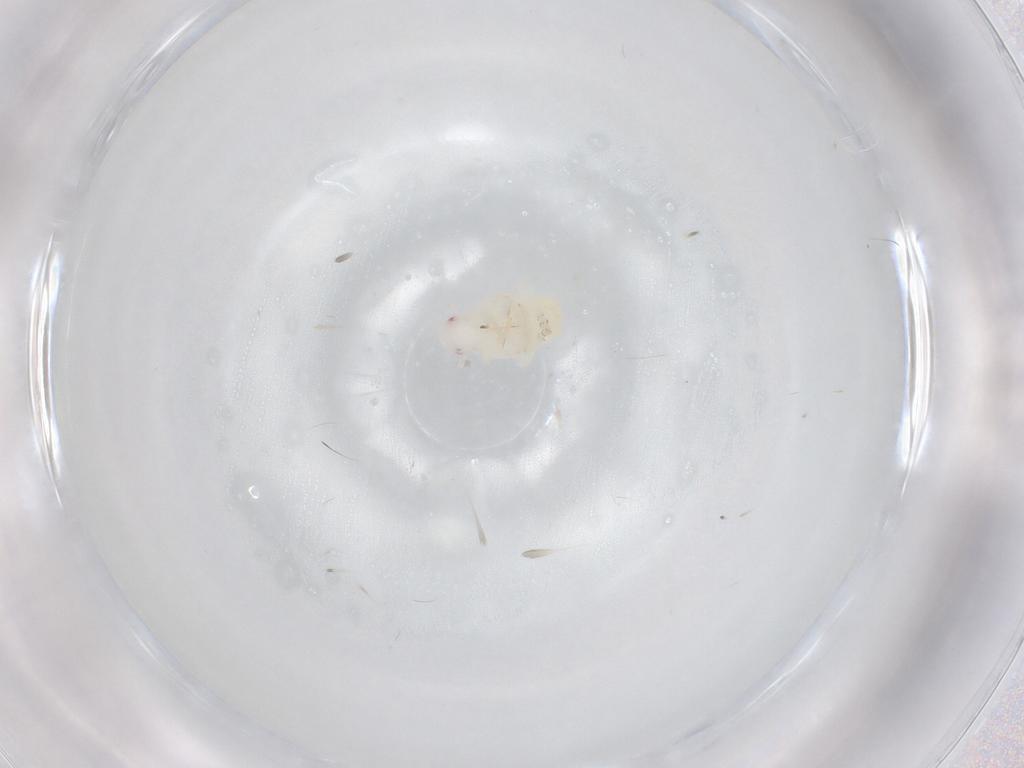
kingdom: Animalia
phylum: Arthropoda
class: Insecta
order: Hemiptera
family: Cicadellidae
